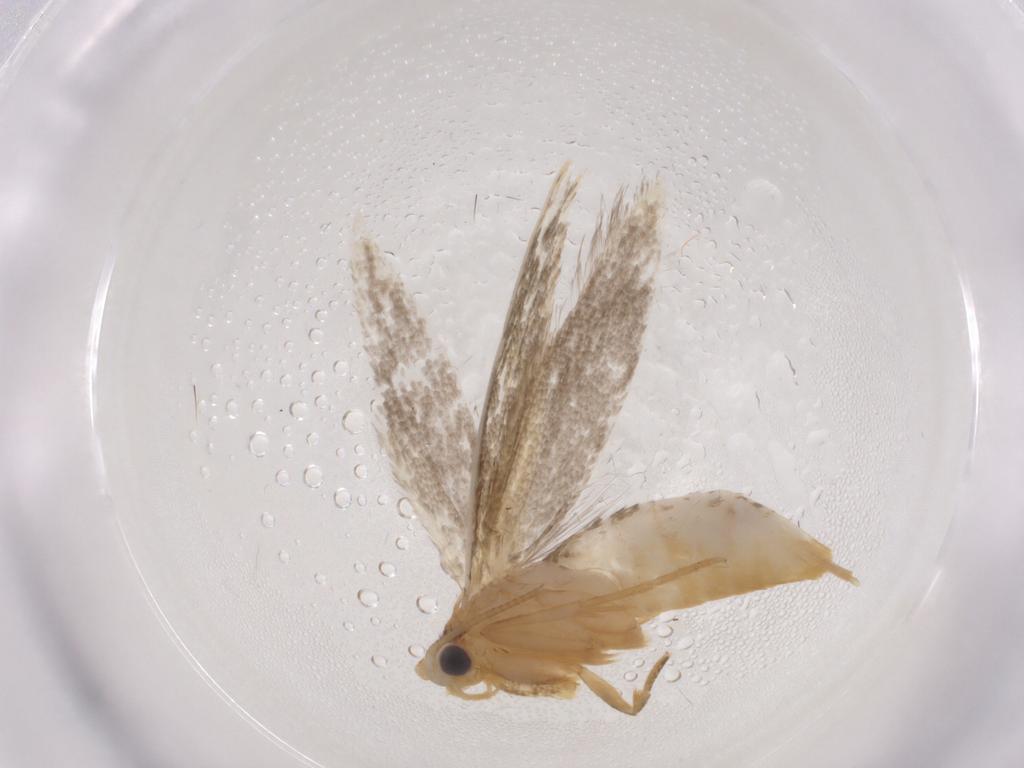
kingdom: Animalia
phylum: Arthropoda
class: Insecta
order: Lepidoptera
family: Tineidae
